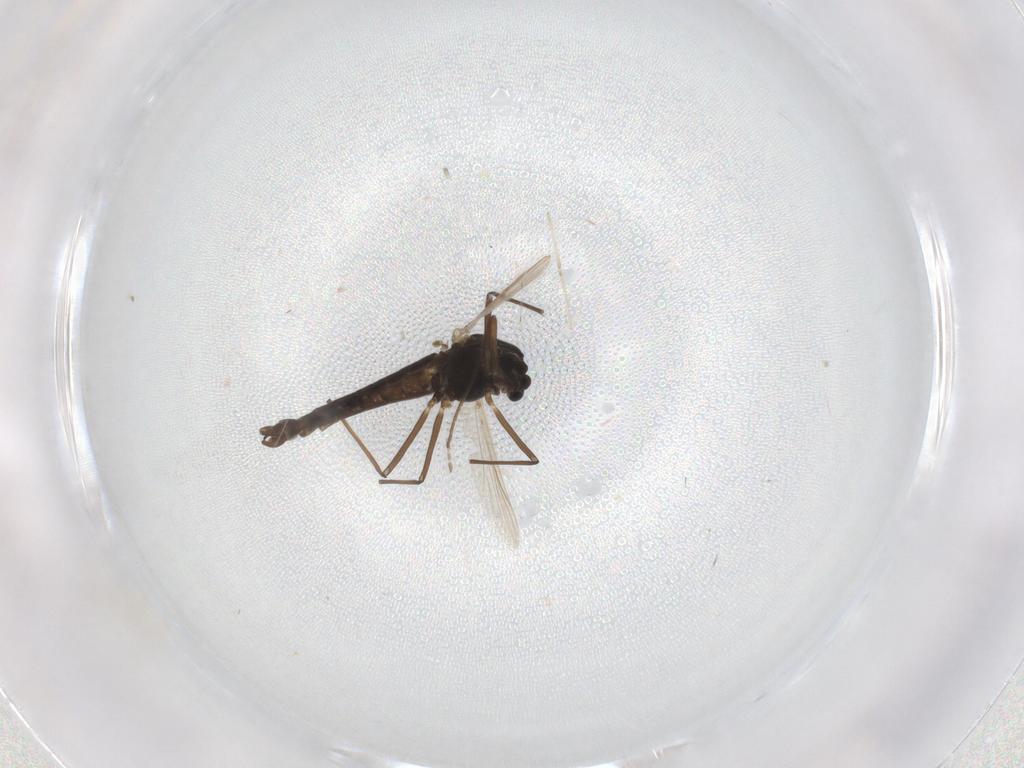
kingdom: Animalia
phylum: Arthropoda
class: Insecta
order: Diptera
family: Chironomidae
